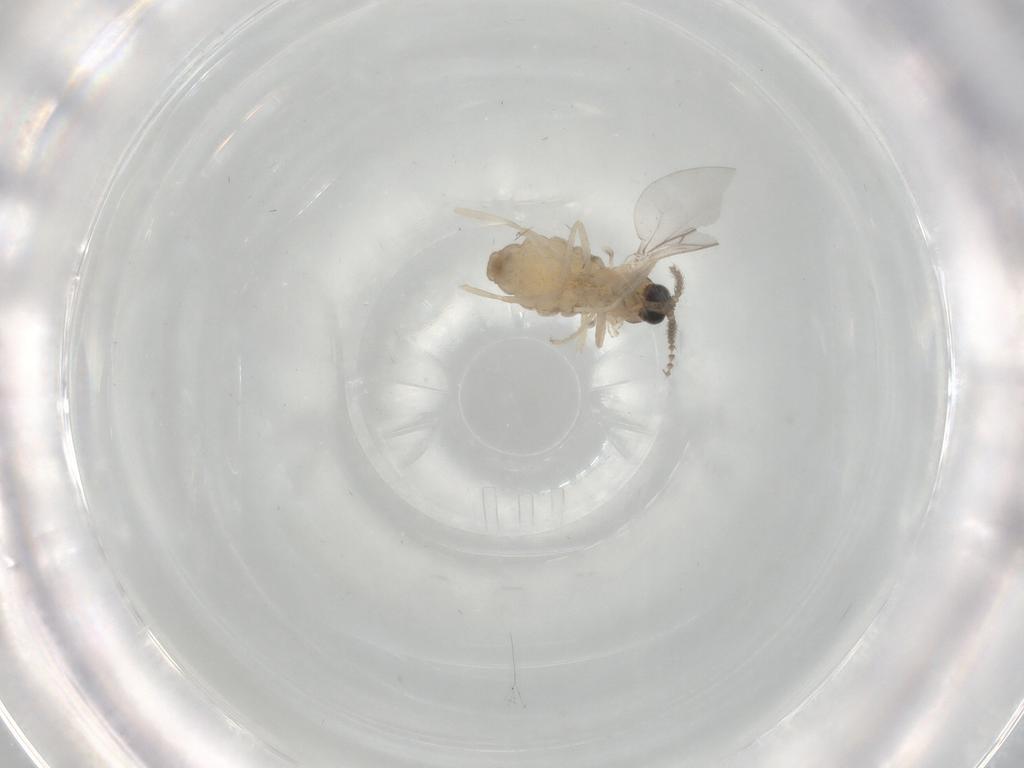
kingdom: Animalia
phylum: Arthropoda
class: Insecta
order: Diptera
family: Cecidomyiidae
